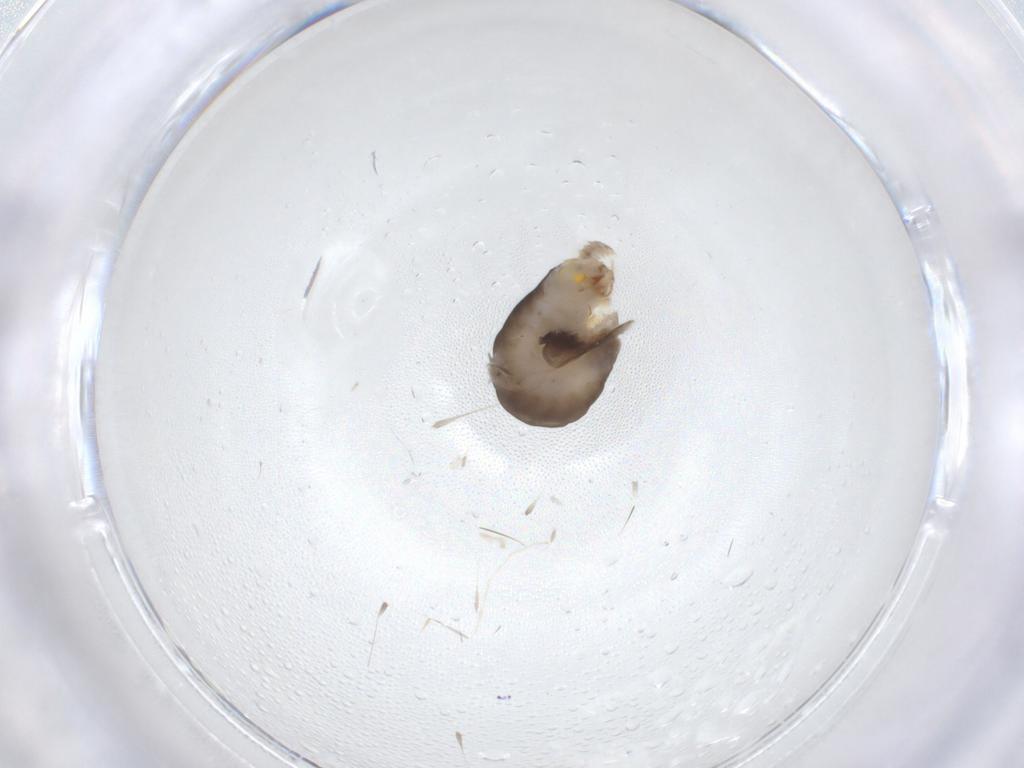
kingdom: Animalia
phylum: Arthropoda
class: Insecta
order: Hymenoptera
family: Dryinidae
